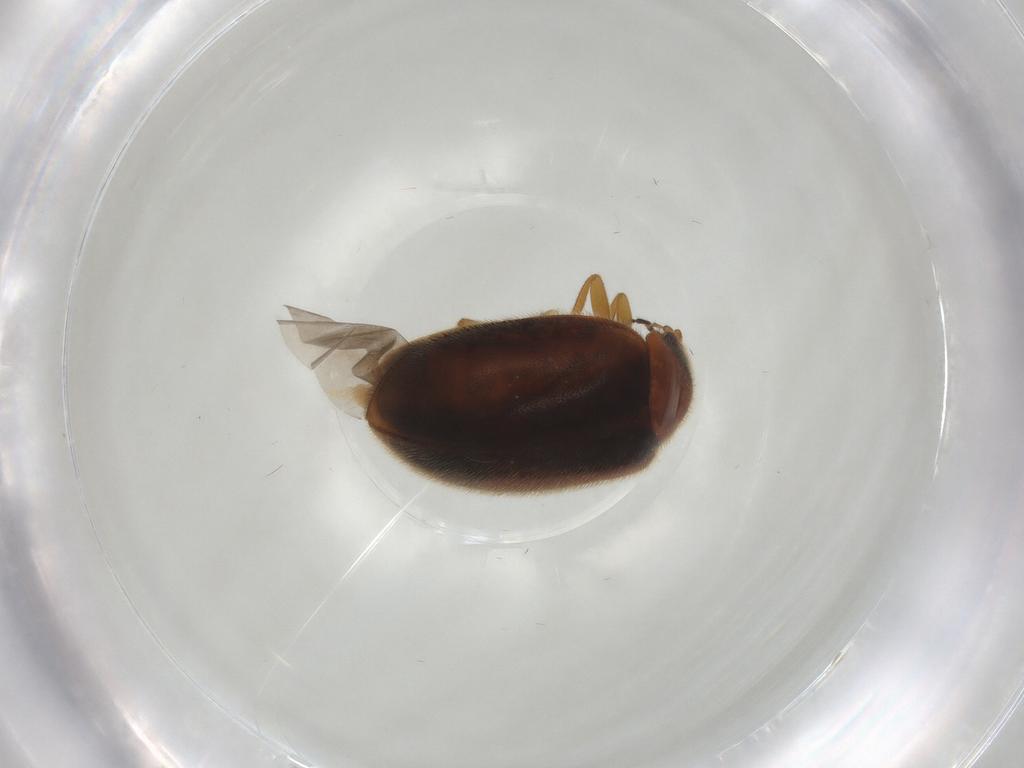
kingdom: Animalia
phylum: Arthropoda
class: Insecta
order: Coleoptera
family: Scirtidae
